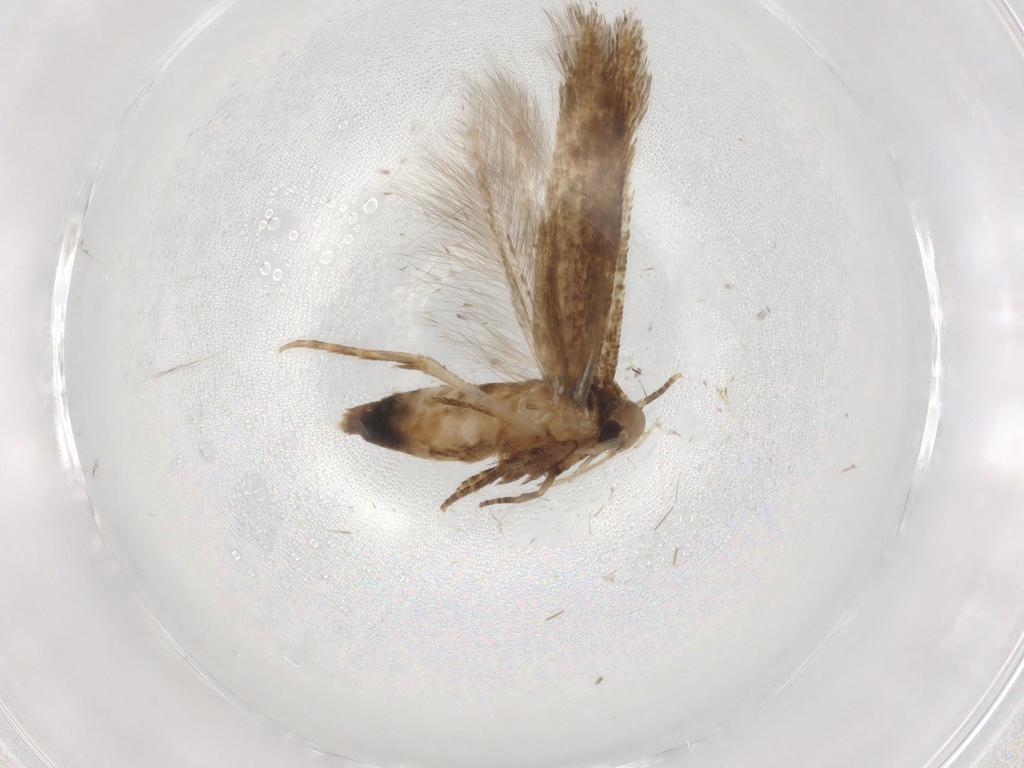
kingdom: Animalia
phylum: Arthropoda
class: Insecta
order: Lepidoptera
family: Cosmopterigidae
